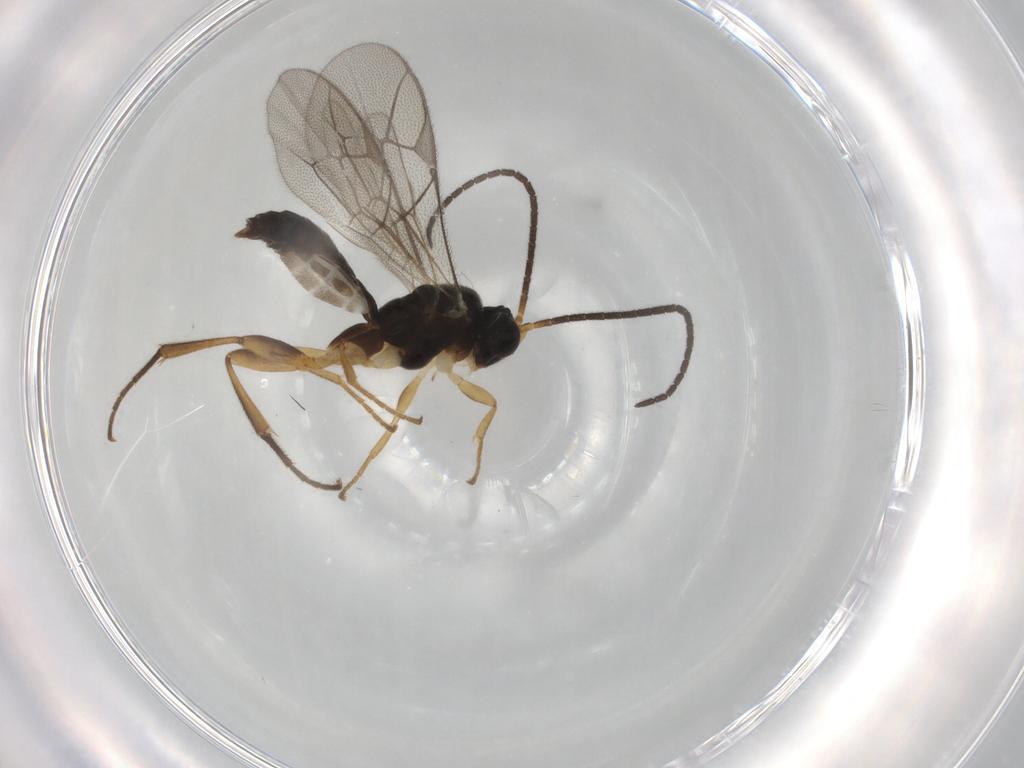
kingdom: Animalia
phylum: Arthropoda
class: Insecta
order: Hymenoptera
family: Ichneumonidae
